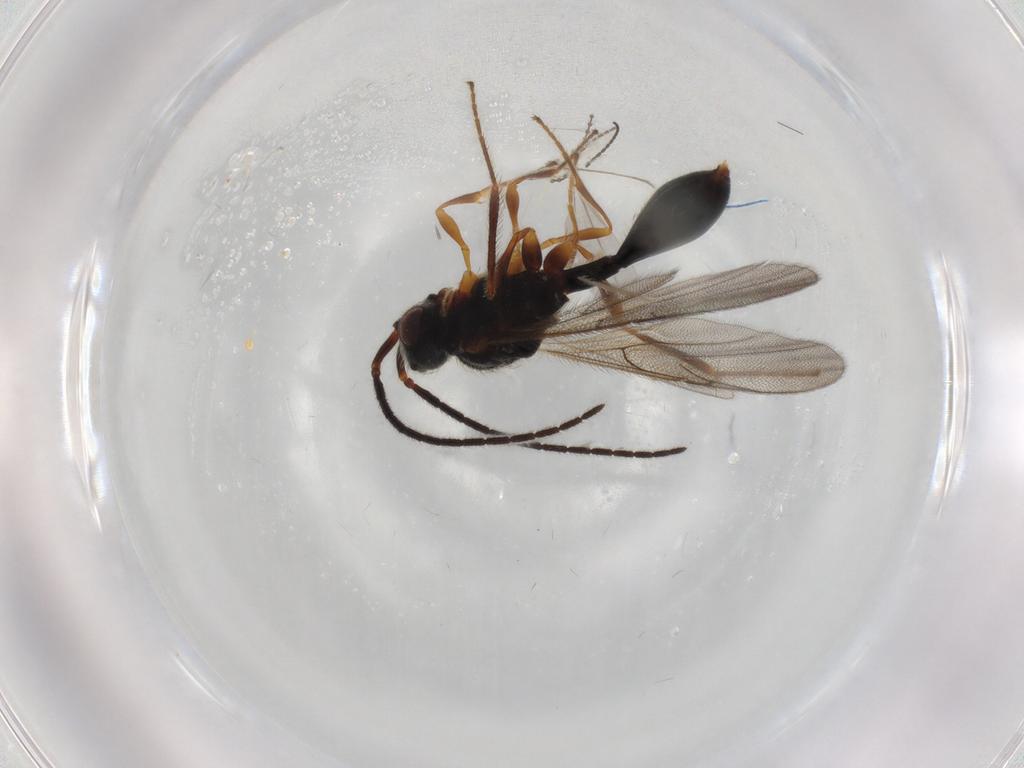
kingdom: Animalia
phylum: Arthropoda
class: Insecta
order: Hymenoptera
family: Diapriidae
